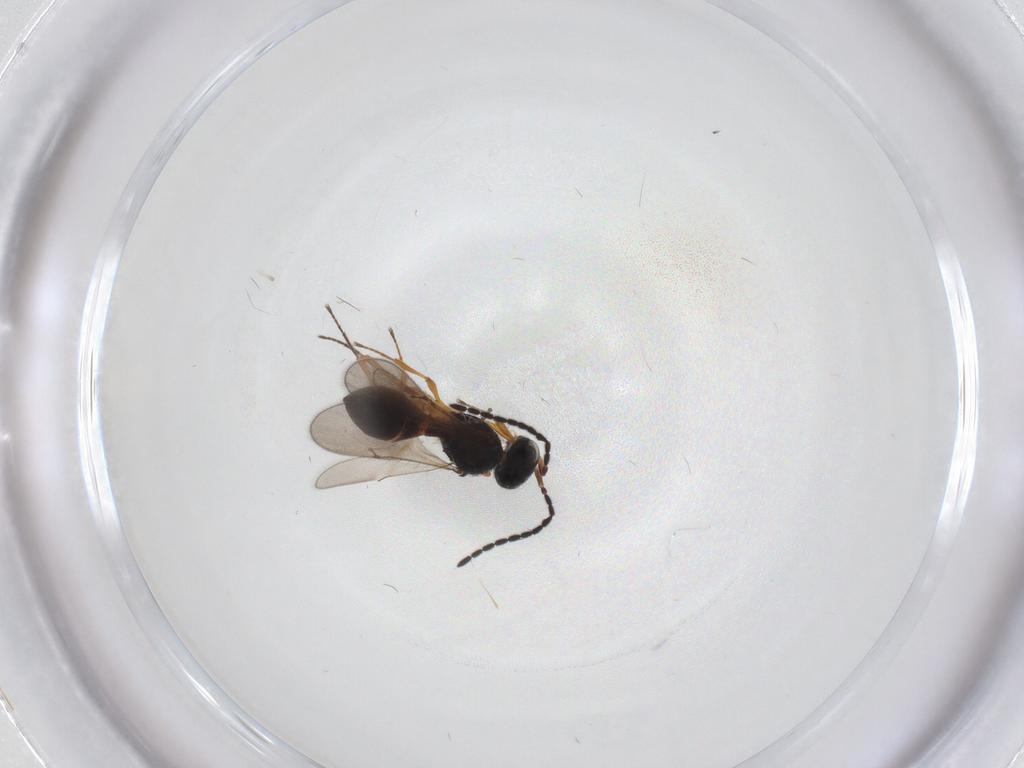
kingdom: Animalia
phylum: Arthropoda
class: Insecta
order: Hymenoptera
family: Scelionidae
